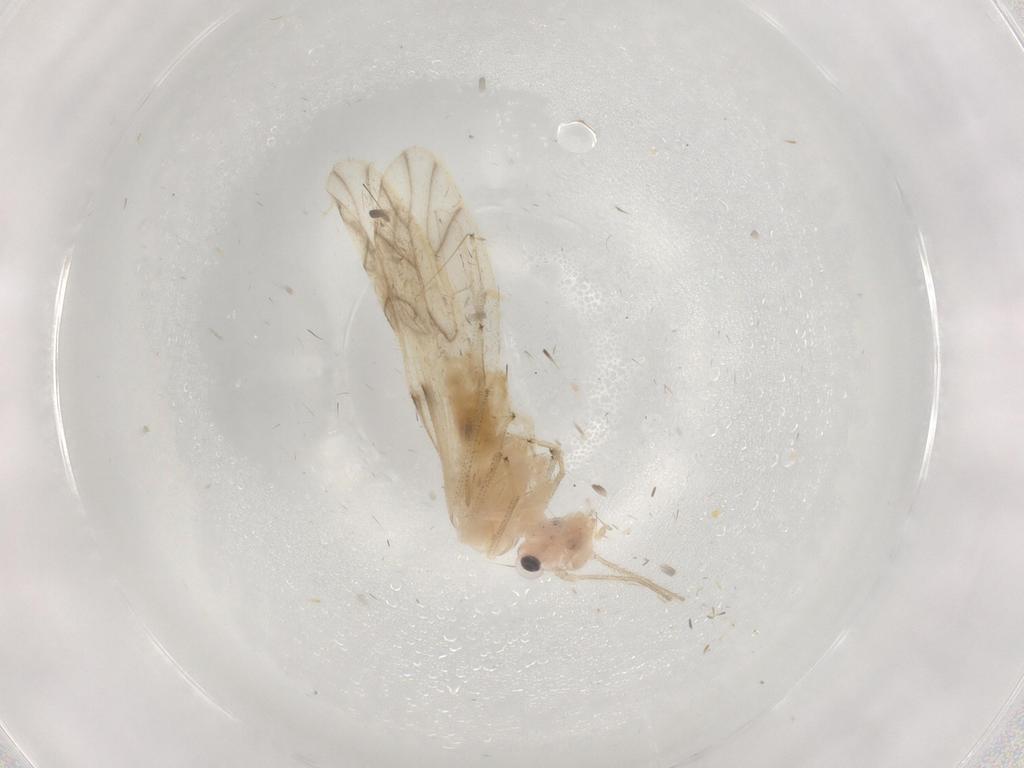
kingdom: Animalia
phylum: Arthropoda
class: Insecta
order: Psocodea
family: Caeciliusidae
